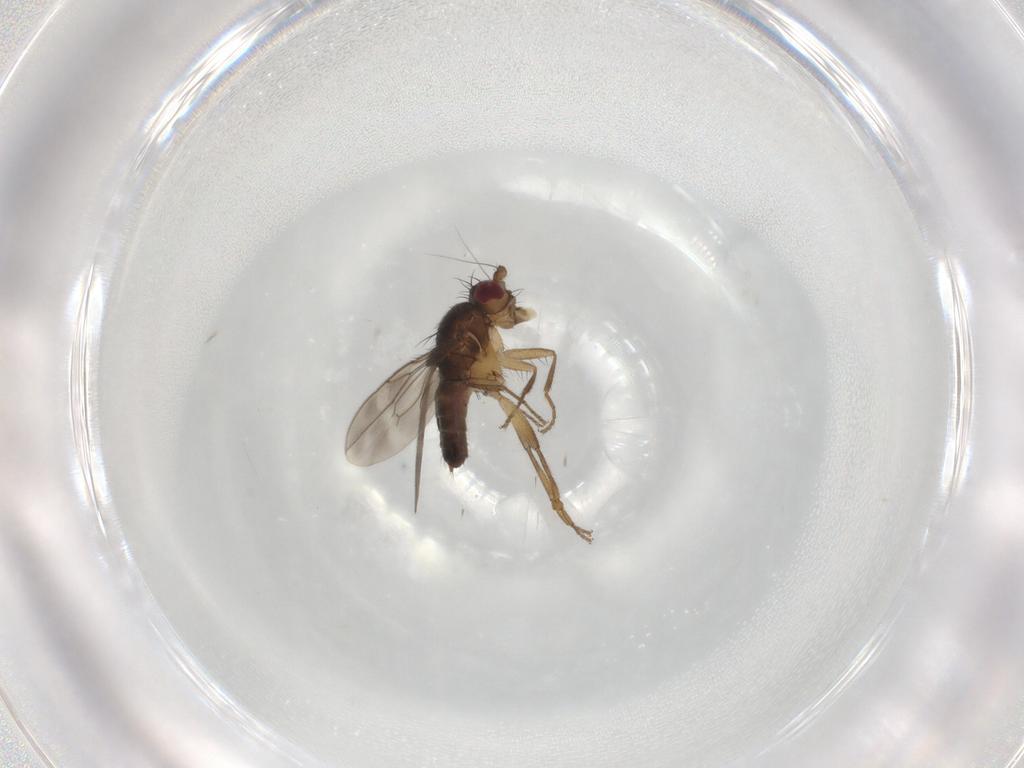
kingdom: Animalia
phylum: Arthropoda
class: Insecta
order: Diptera
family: Sphaeroceridae
